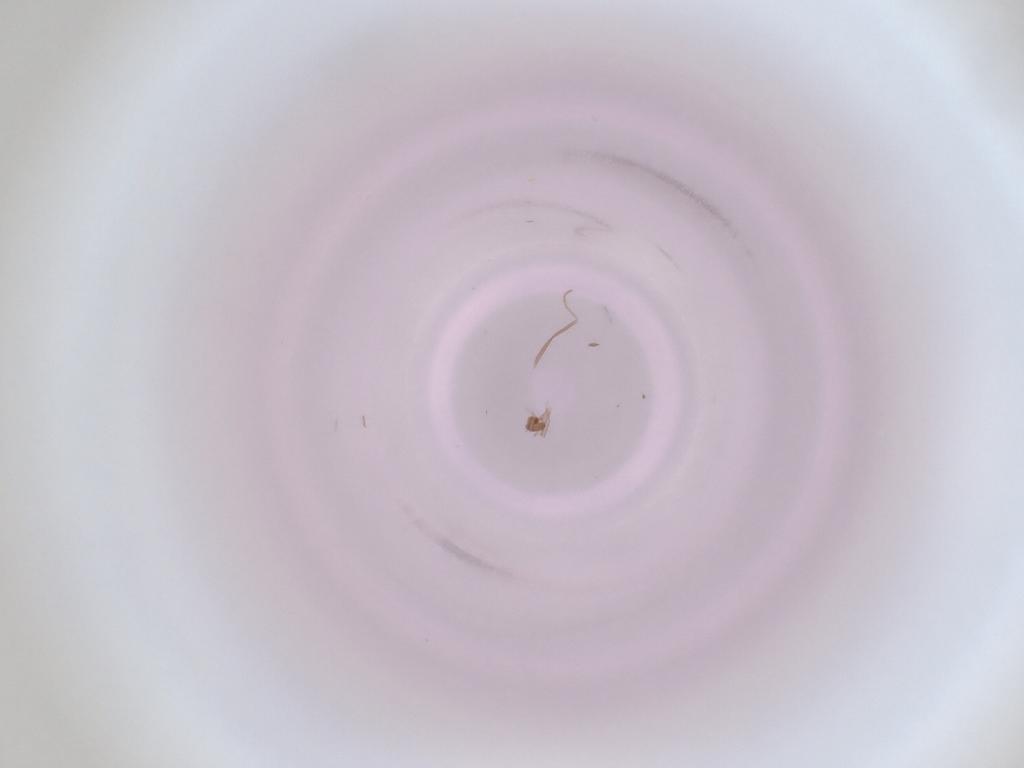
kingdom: Animalia
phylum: Arthropoda
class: Insecta
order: Diptera
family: Cecidomyiidae
